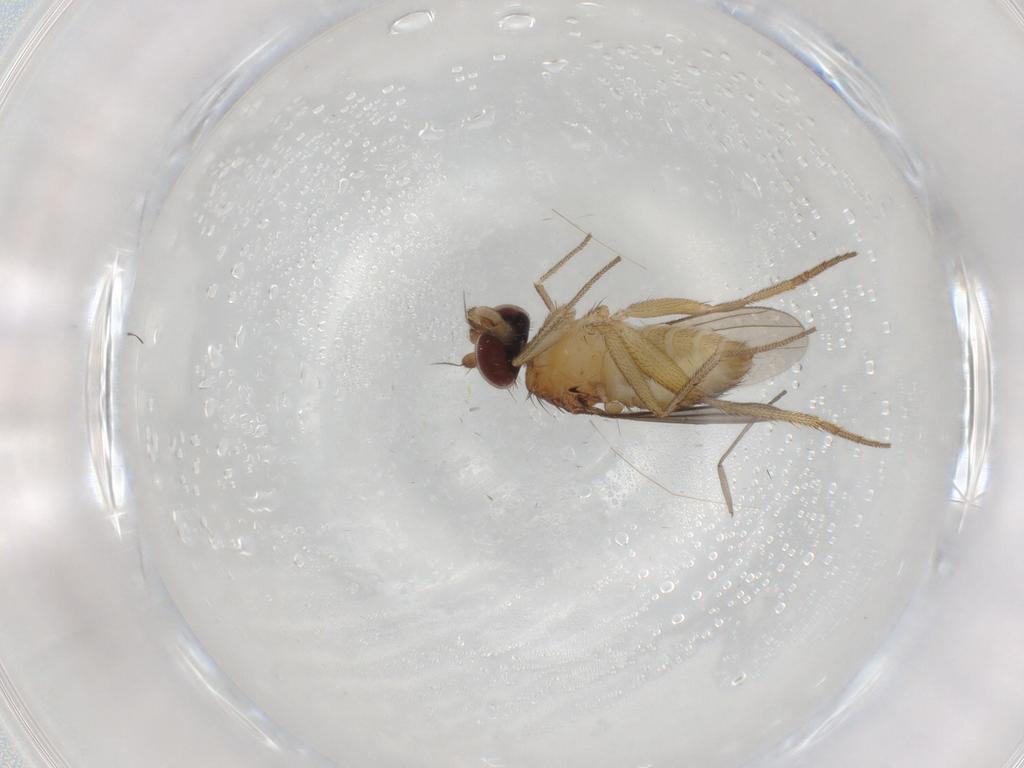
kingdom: Animalia
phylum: Arthropoda
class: Insecta
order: Diptera
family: Dolichopodidae
